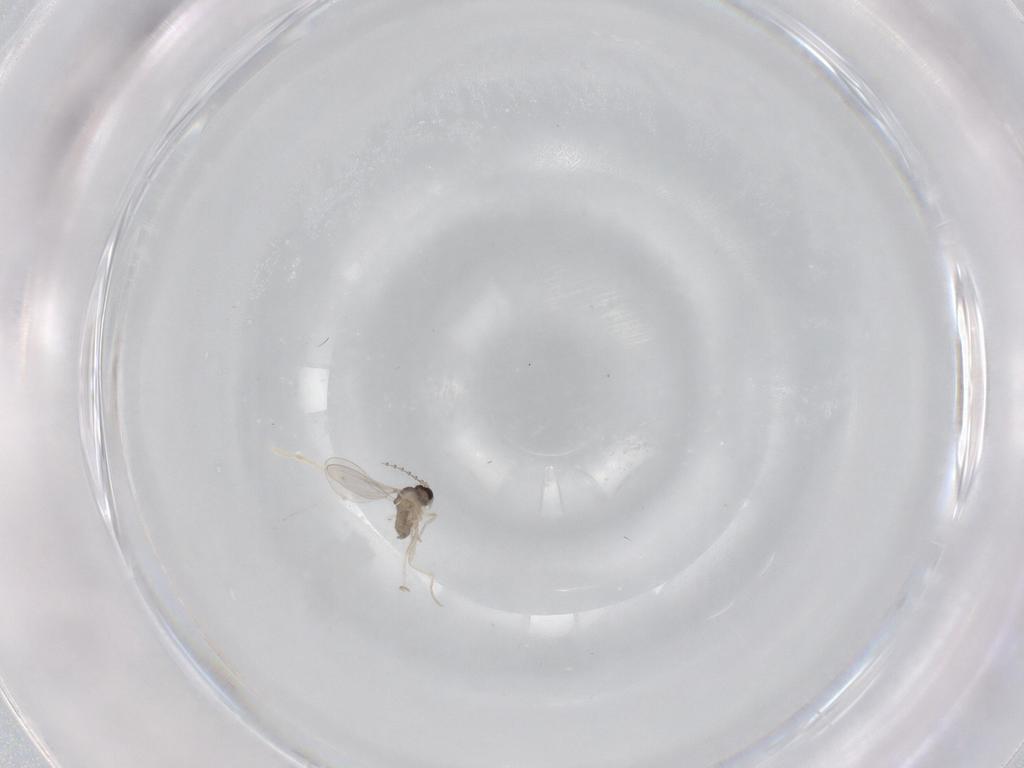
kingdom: Animalia
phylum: Arthropoda
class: Insecta
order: Diptera
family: Cecidomyiidae
